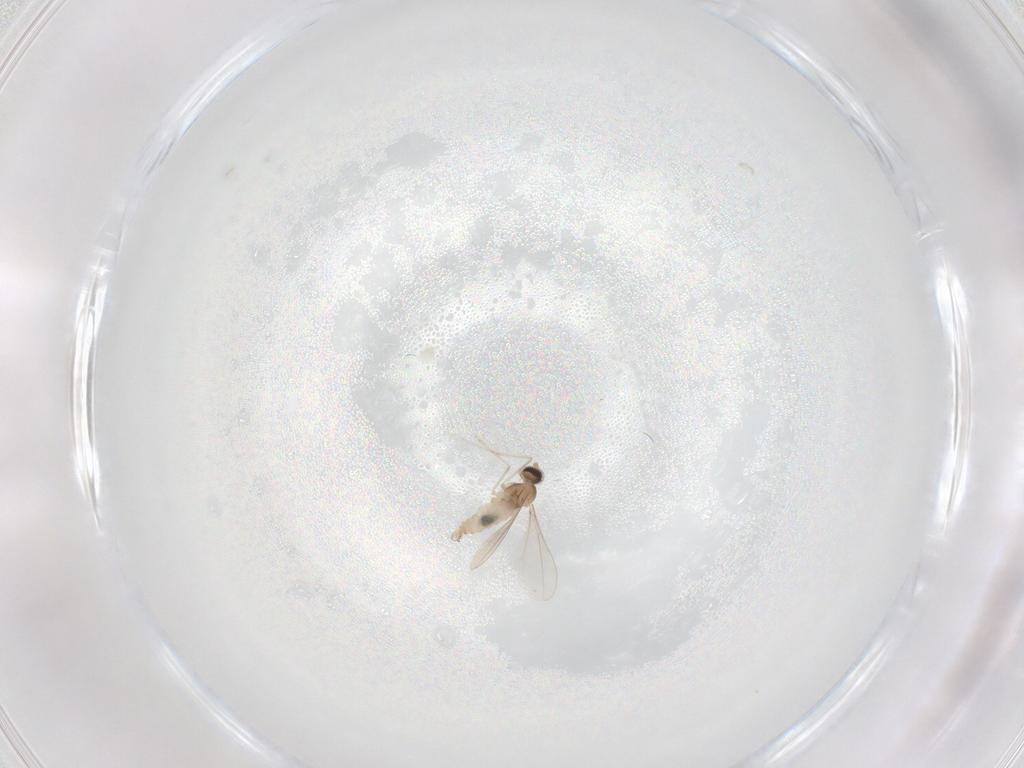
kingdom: Animalia
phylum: Arthropoda
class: Insecta
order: Diptera
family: Cecidomyiidae
